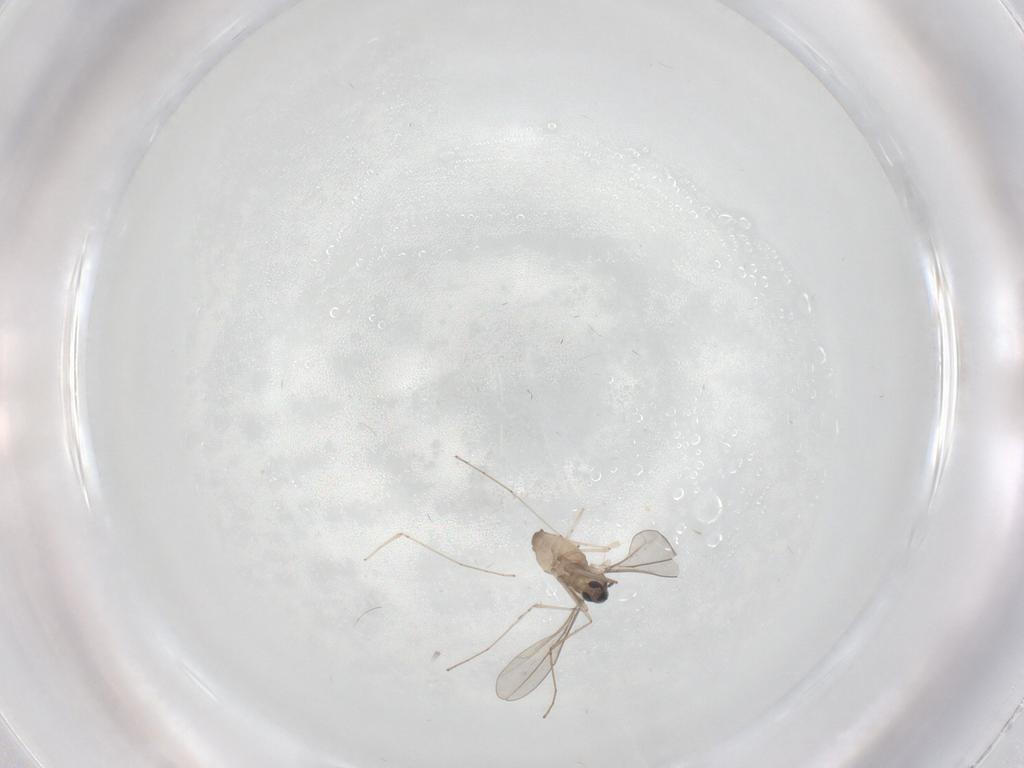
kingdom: Animalia
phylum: Arthropoda
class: Insecta
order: Diptera
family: Cecidomyiidae
